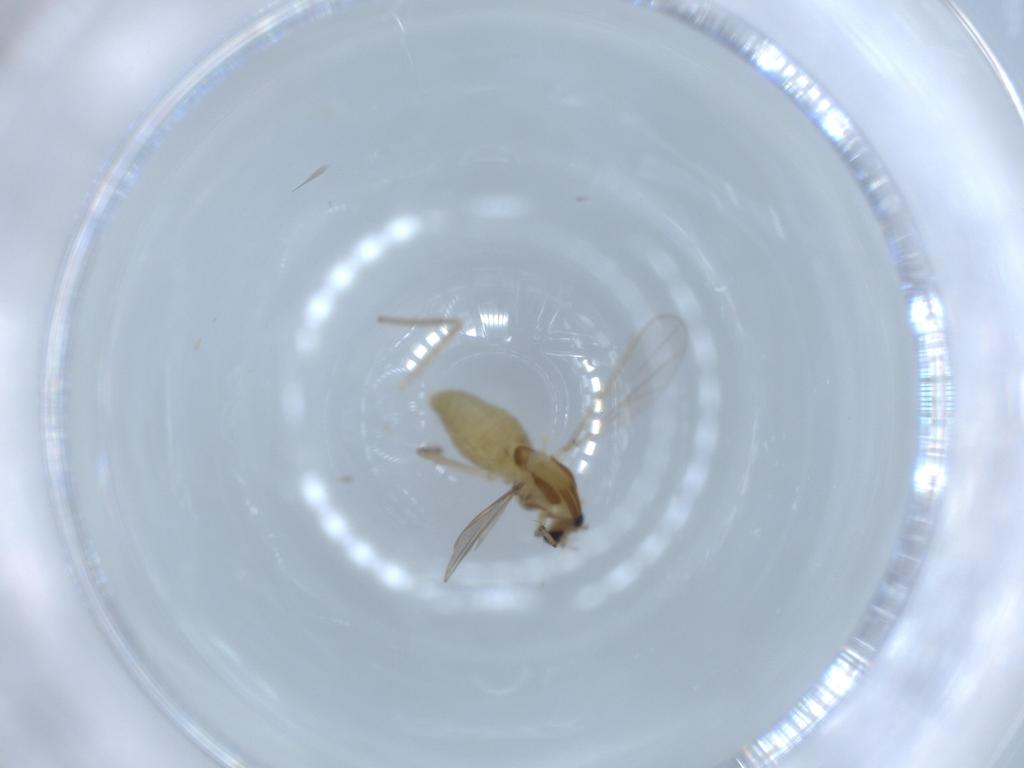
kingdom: Animalia
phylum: Arthropoda
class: Insecta
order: Diptera
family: Chironomidae
